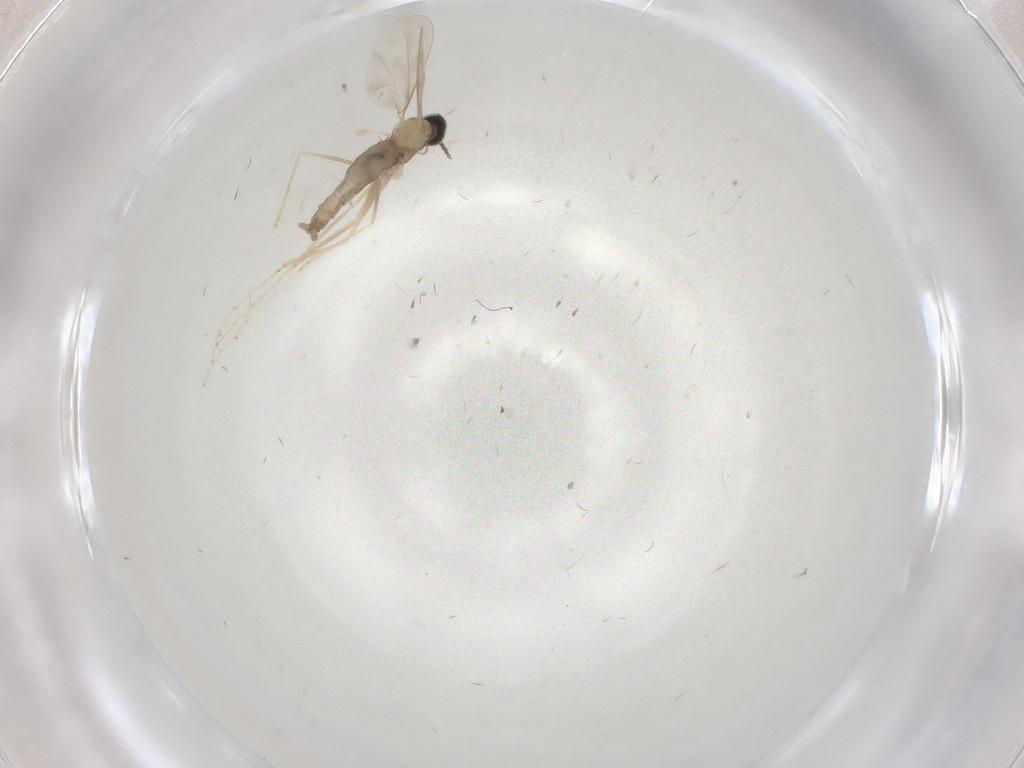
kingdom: Animalia
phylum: Arthropoda
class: Insecta
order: Diptera
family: Cecidomyiidae
